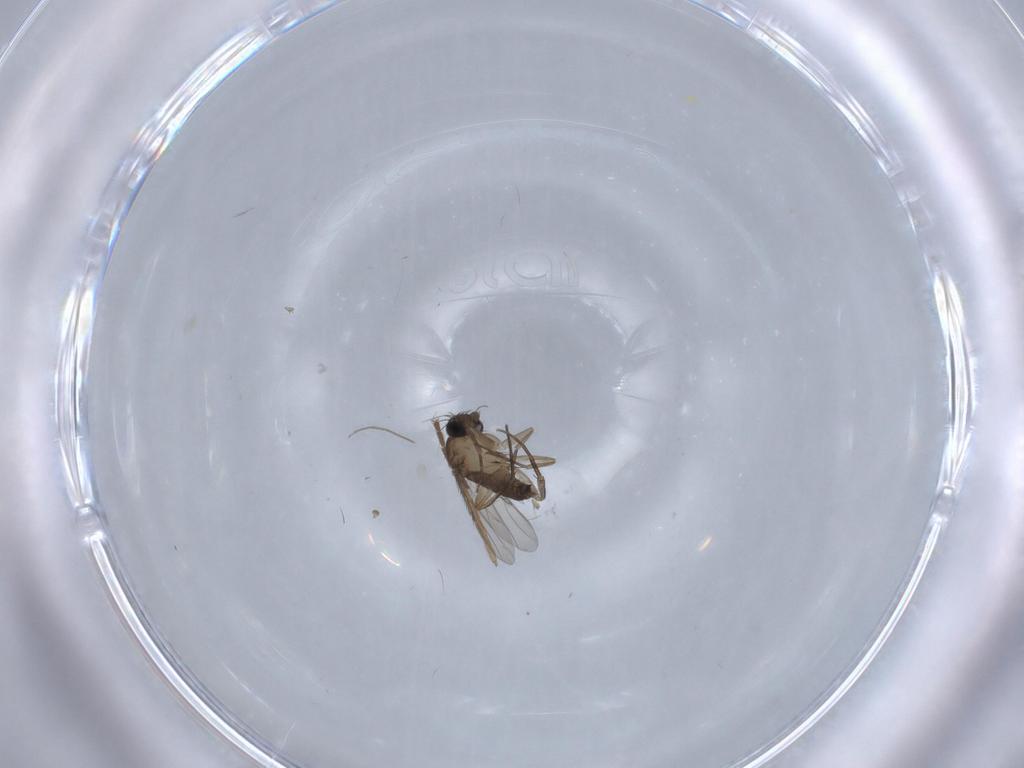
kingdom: Animalia
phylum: Arthropoda
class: Insecta
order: Diptera
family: Phoridae
